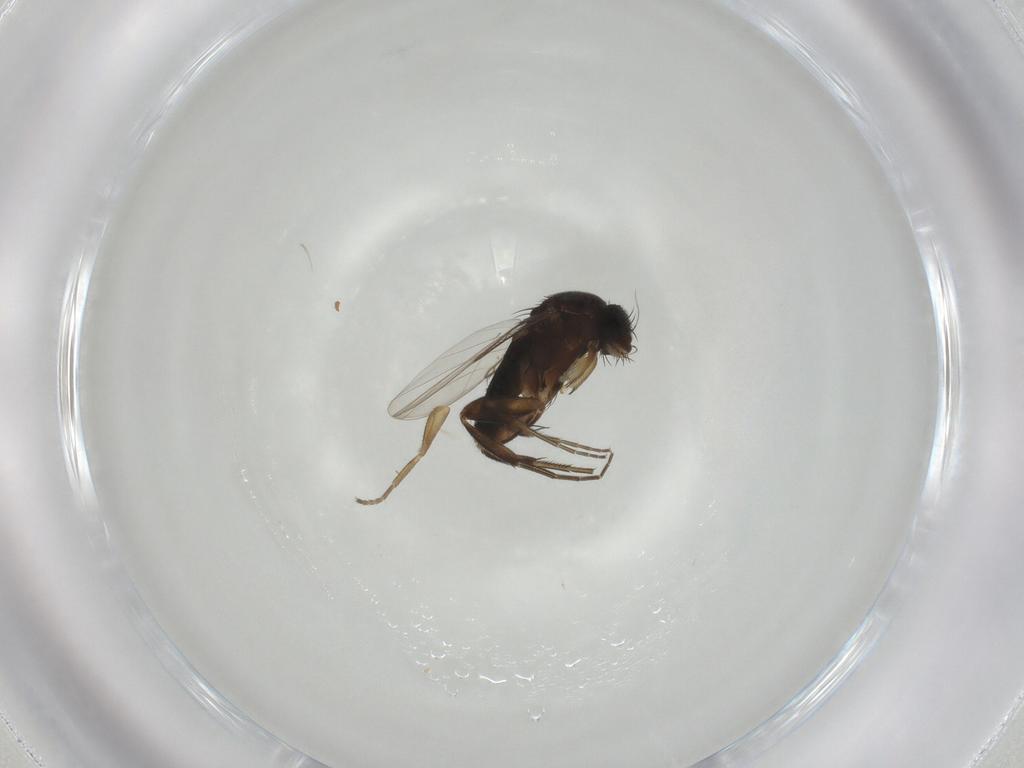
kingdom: Animalia
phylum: Arthropoda
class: Insecta
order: Diptera
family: Phoridae
